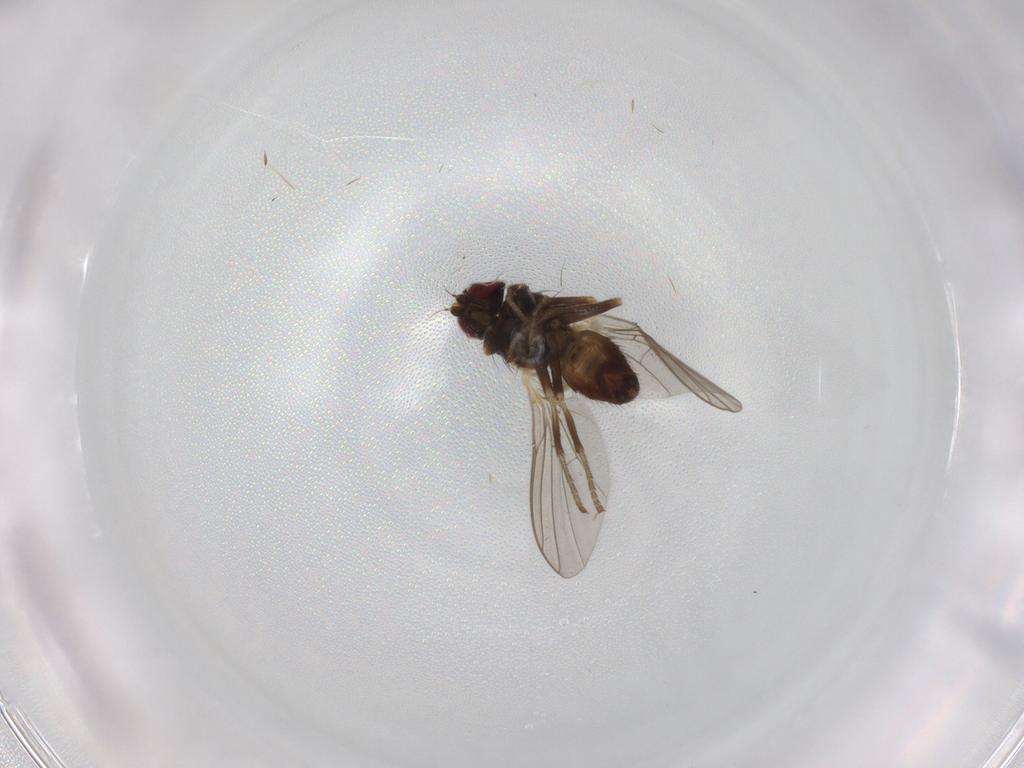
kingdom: Animalia
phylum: Arthropoda
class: Insecta
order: Diptera
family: Agromyzidae
